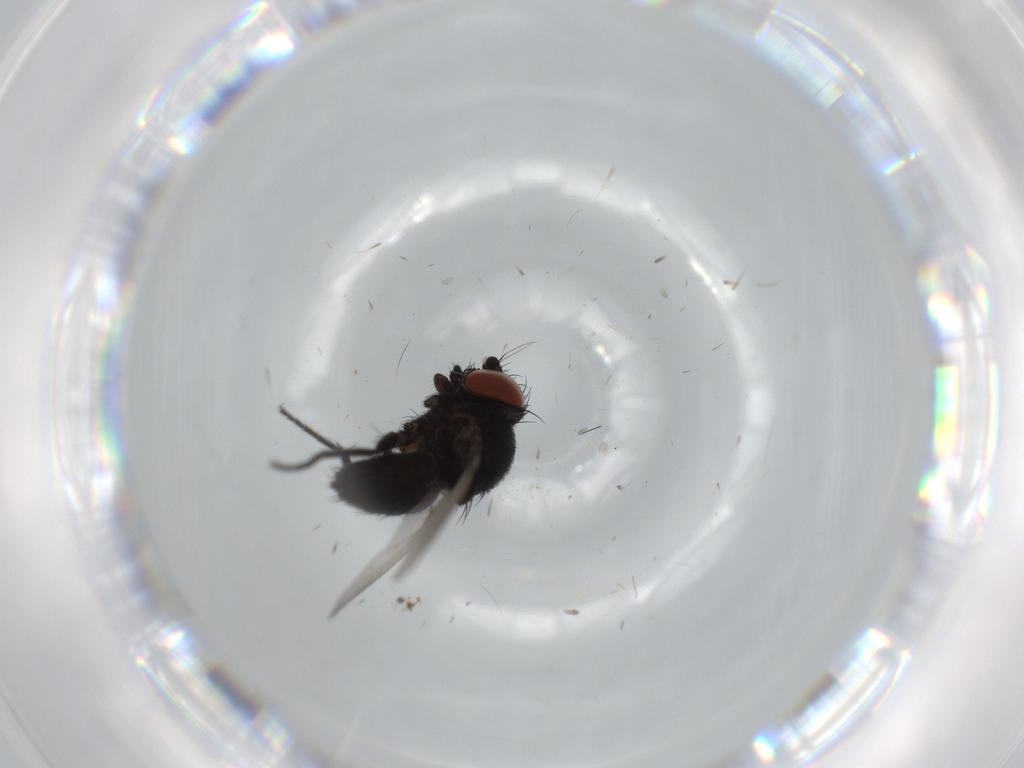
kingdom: Animalia
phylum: Arthropoda
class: Insecta
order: Diptera
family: Milichiidae
